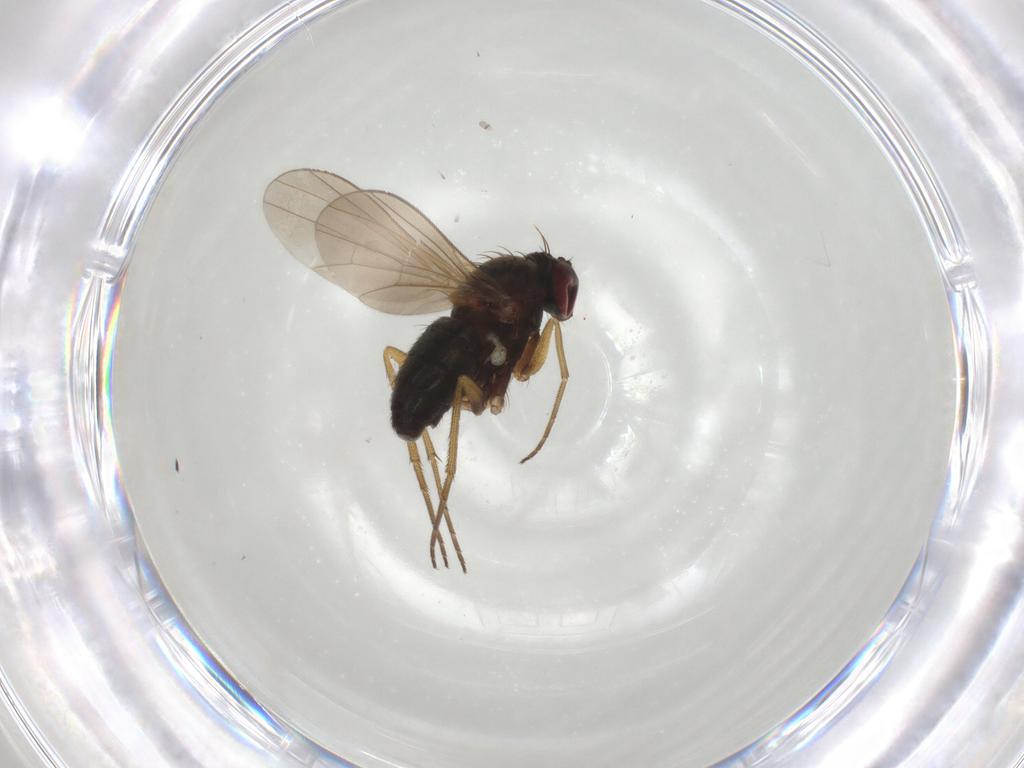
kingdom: Animalia
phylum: Arthropoda
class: Insecta
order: Diptera
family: Dolichopodidae
